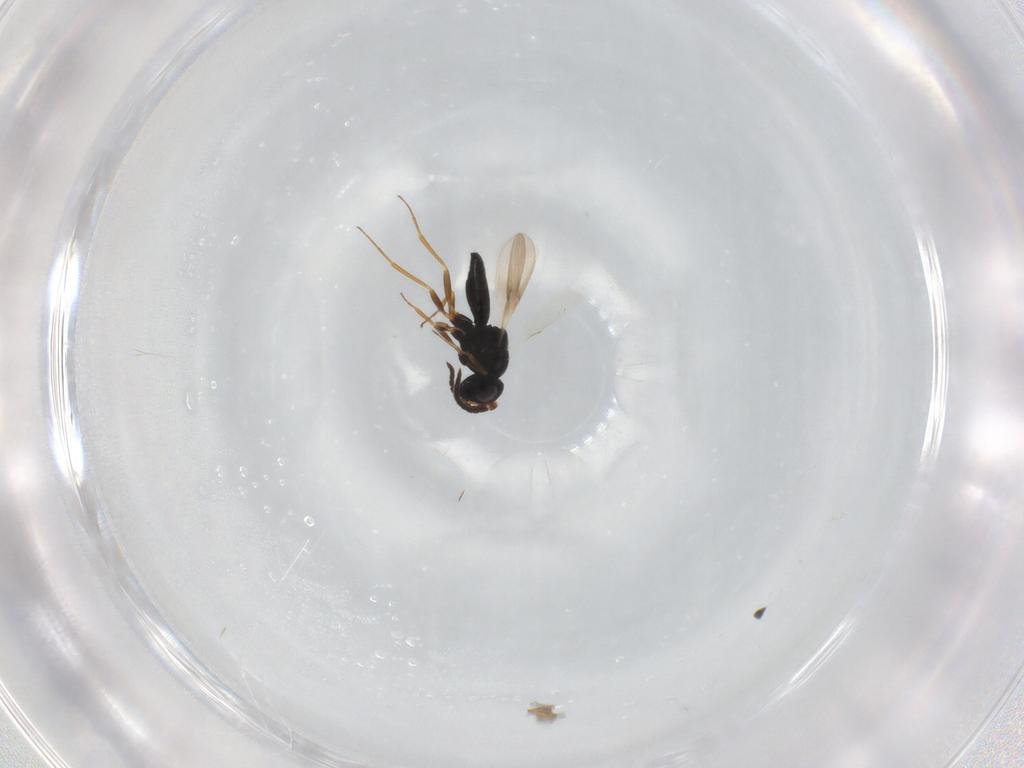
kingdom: Animalia
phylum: Arthropoda
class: Insecta
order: Hymenoptera
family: Scelionidae
